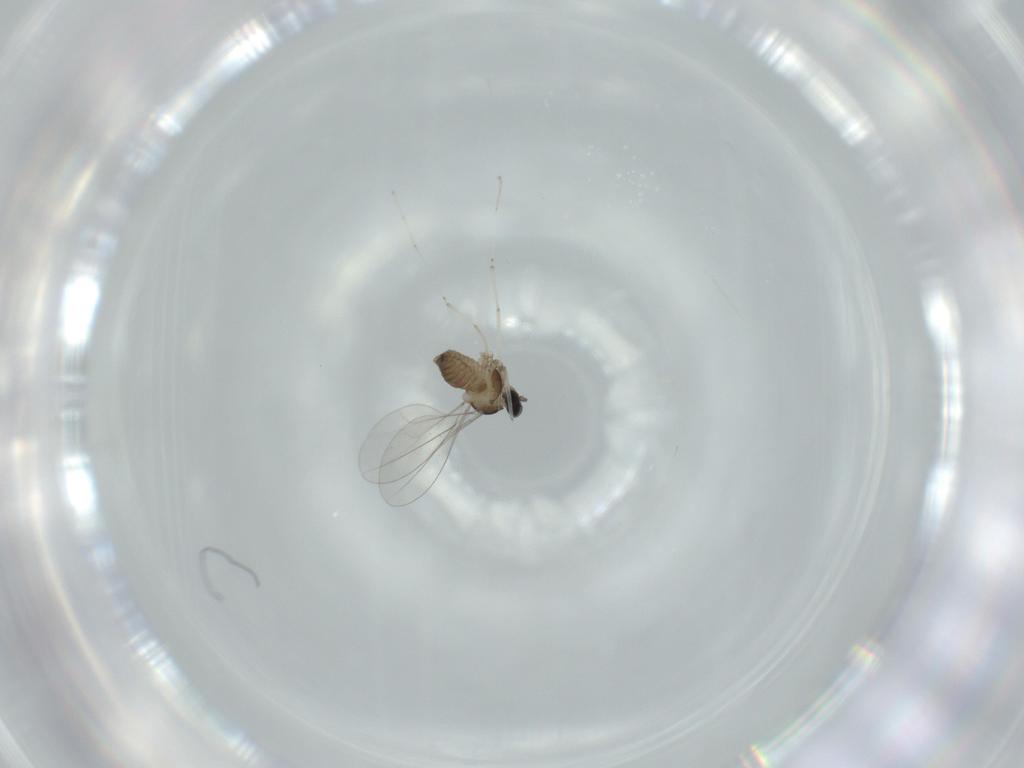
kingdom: Animalia
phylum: Arthropoda
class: Insecta
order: Diptera
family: Cecidomyiidae
